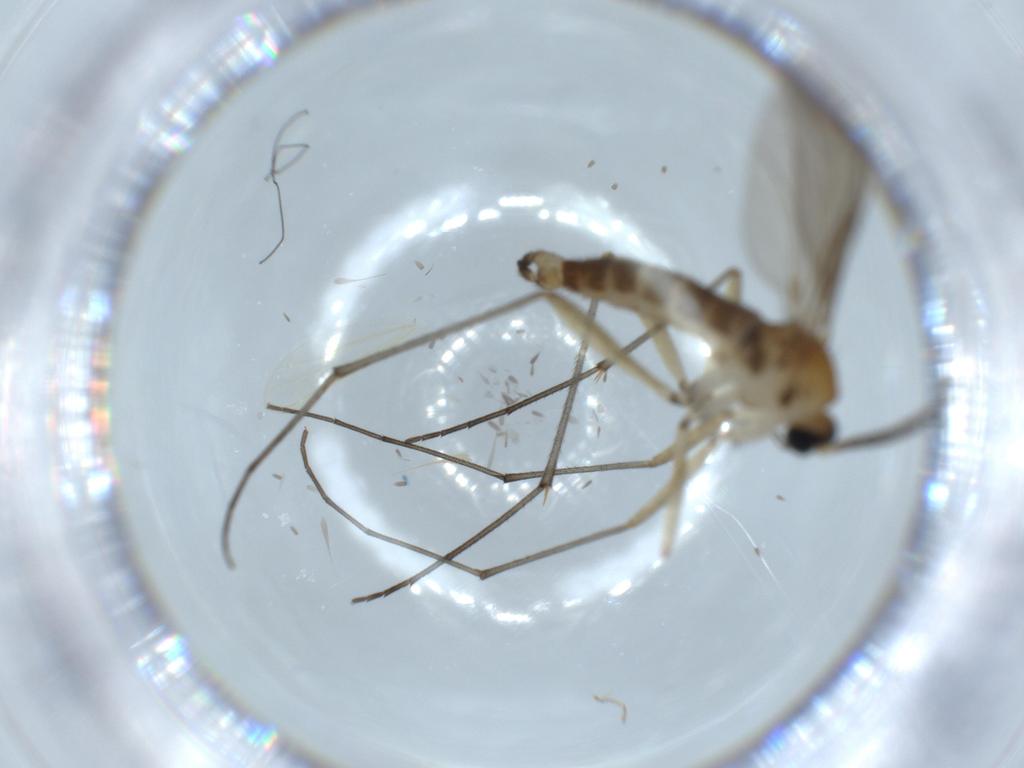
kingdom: Animalia
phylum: Arthropoda
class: Insecta
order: Diptera
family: Sciaridae
